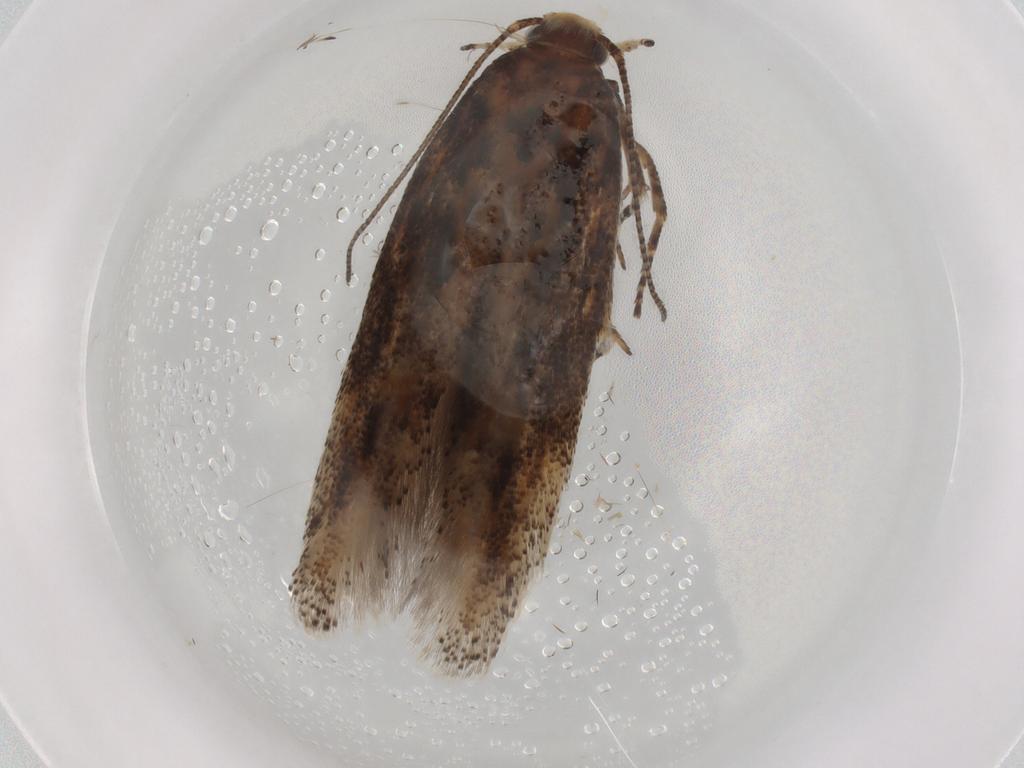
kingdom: Animalia
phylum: Arthropoda
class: Insecta
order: Lepidoptera
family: Gelechiidae
